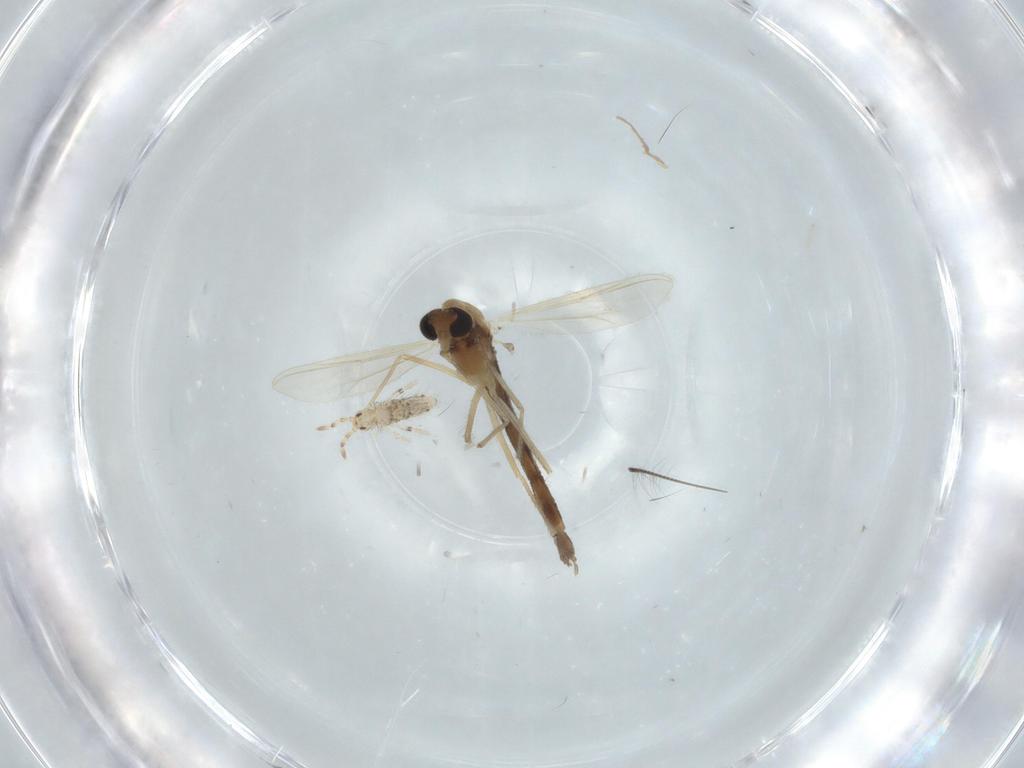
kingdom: Animalia
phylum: Arthropoda
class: Insecta
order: Diptera
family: Chironomidae
